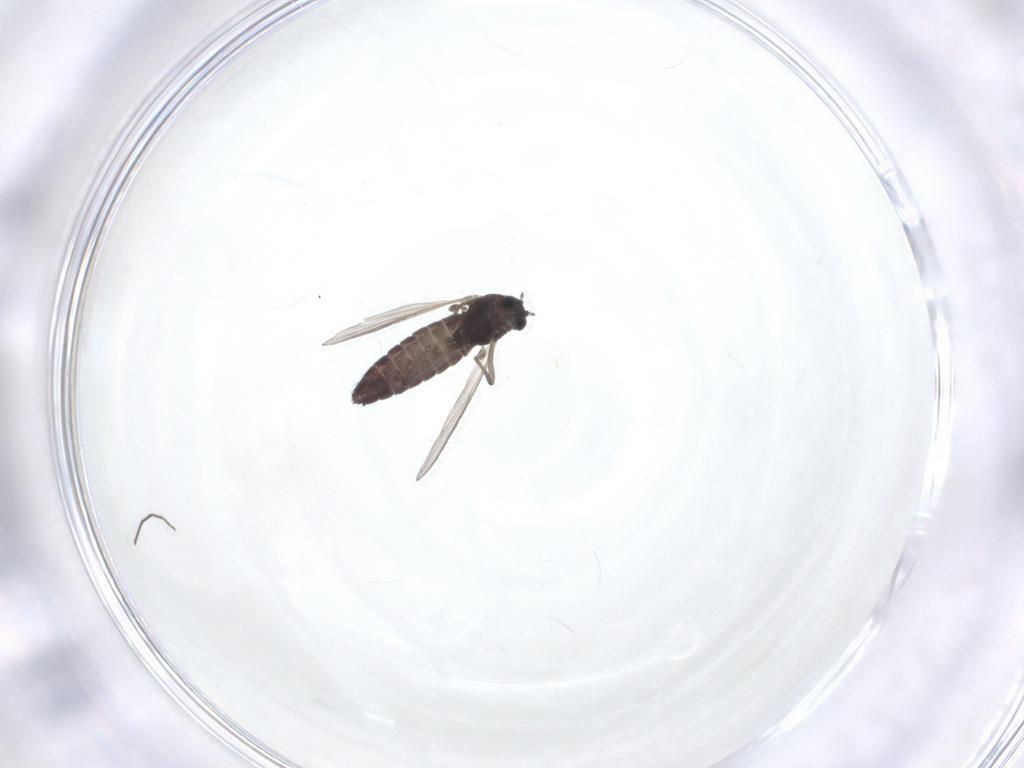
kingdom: Animalia
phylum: Arthropoda
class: Insecta
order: Diptera
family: Chironomidae
